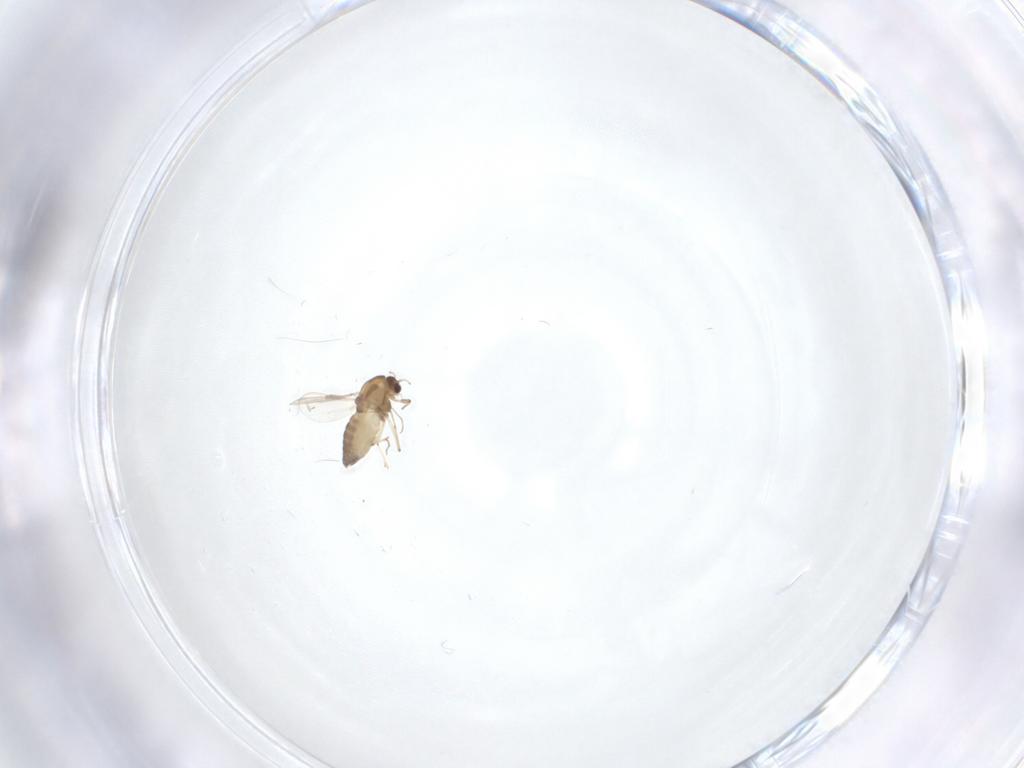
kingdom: Animalia
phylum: Arthropoda
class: Insecta
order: Diptera
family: Chironomidae
